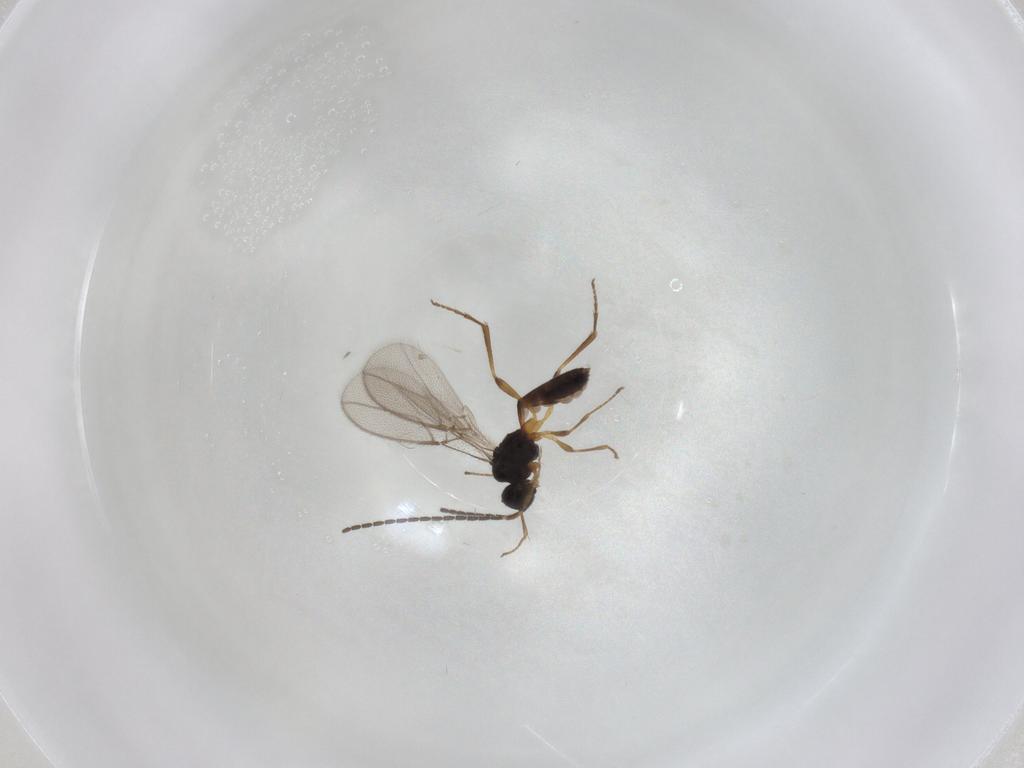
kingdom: Animalia
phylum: Arthropoda
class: Insecta
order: Hymenoptera
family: Braconidae
